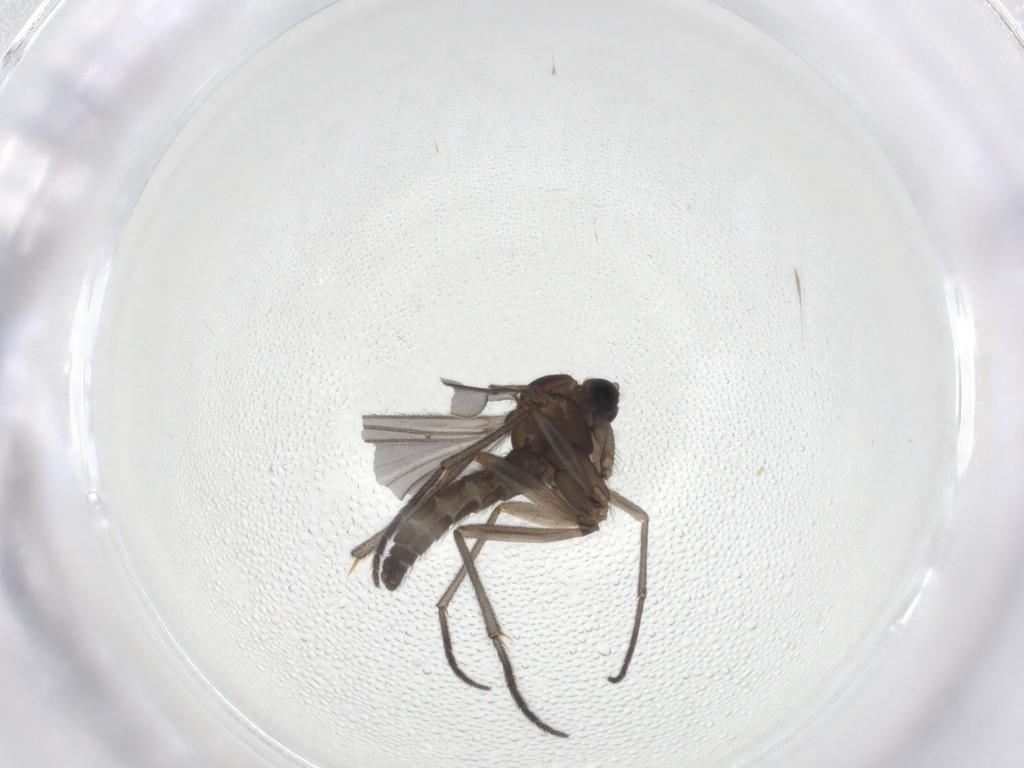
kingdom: Animalia
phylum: Arthropoda
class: Insecta
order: Diptera
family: Sciaridae
